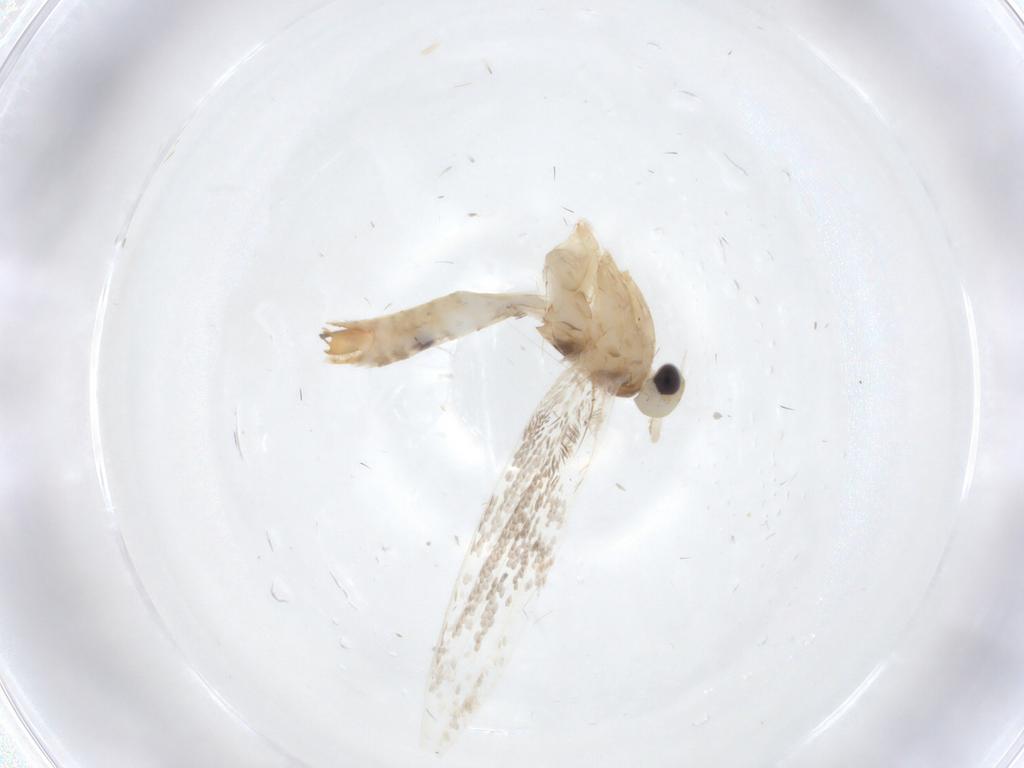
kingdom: Animalia
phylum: Arthropoda
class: Insecta
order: Lepidoptera
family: Gracillariidae
